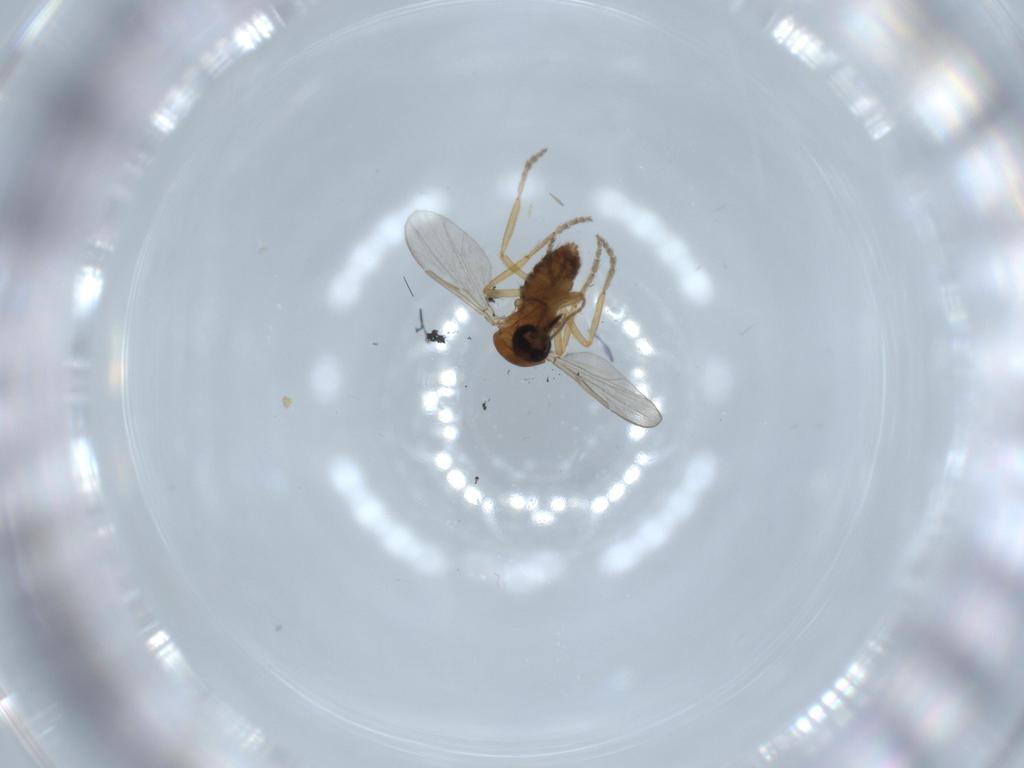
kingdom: Animalia
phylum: Arthropoda
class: Insecta
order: Diptera
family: Ceratopogonidae
